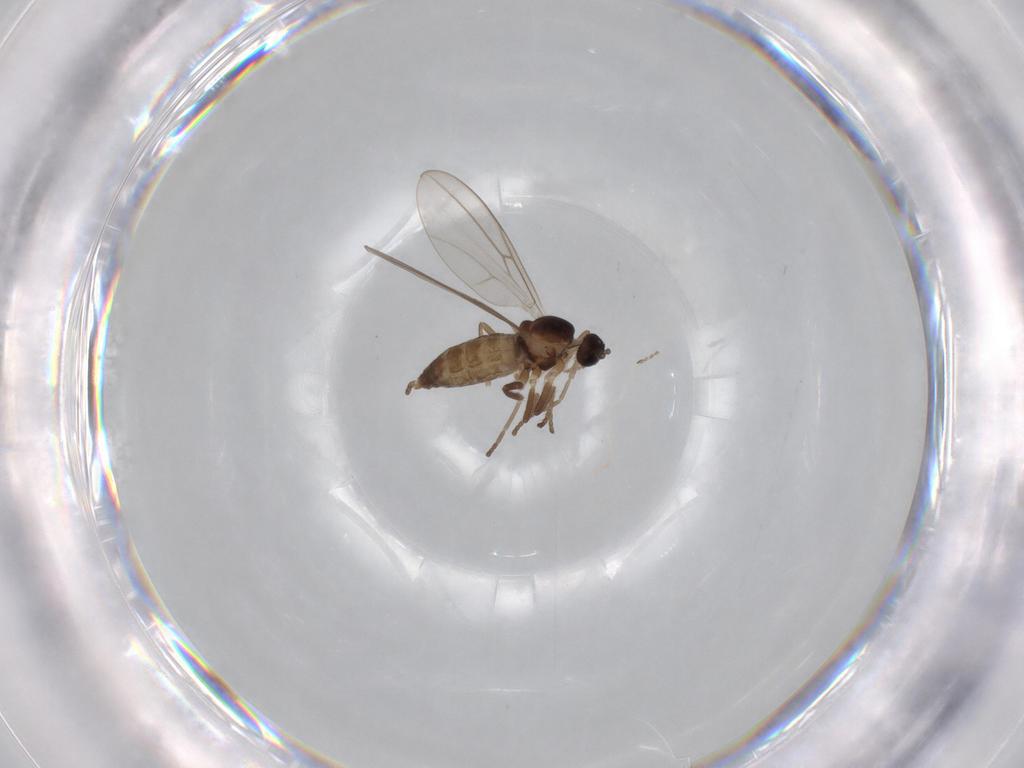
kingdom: Animalia
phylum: Arthropoda
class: Insecta
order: Diptera
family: Cecidomyiidae
